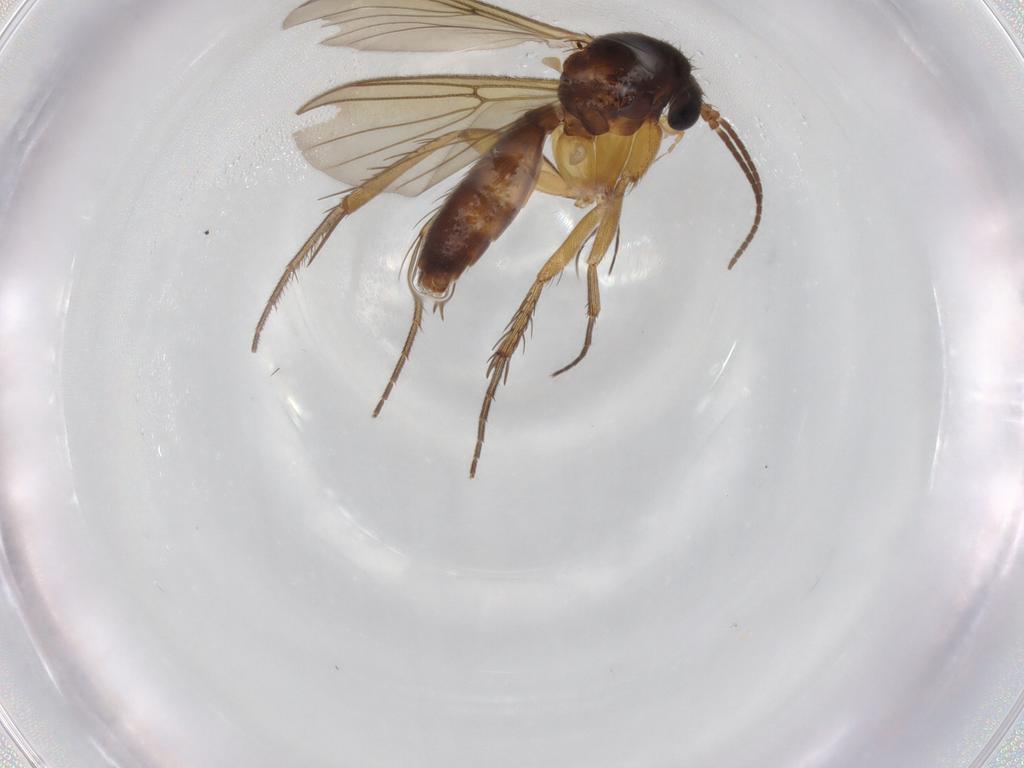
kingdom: Animalia
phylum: Arthropoda
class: Insecta
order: Diptera
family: Mycetophilidae
